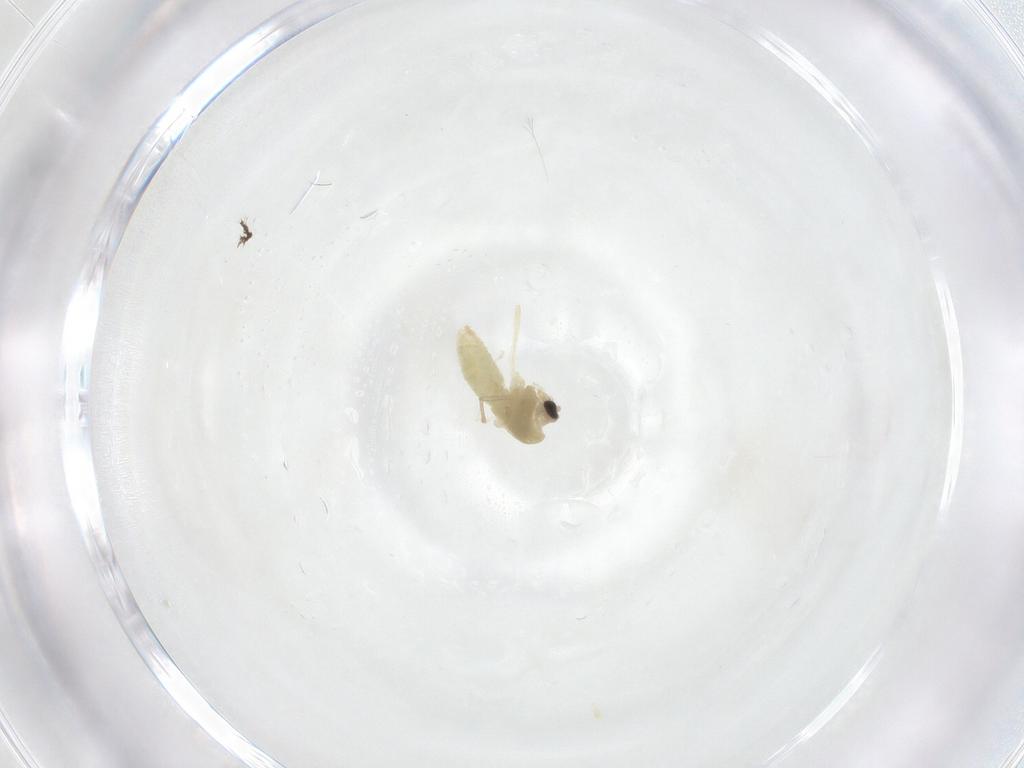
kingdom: Animalia
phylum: Arthropoda
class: Insecta
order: Diptera
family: Chironomidae
